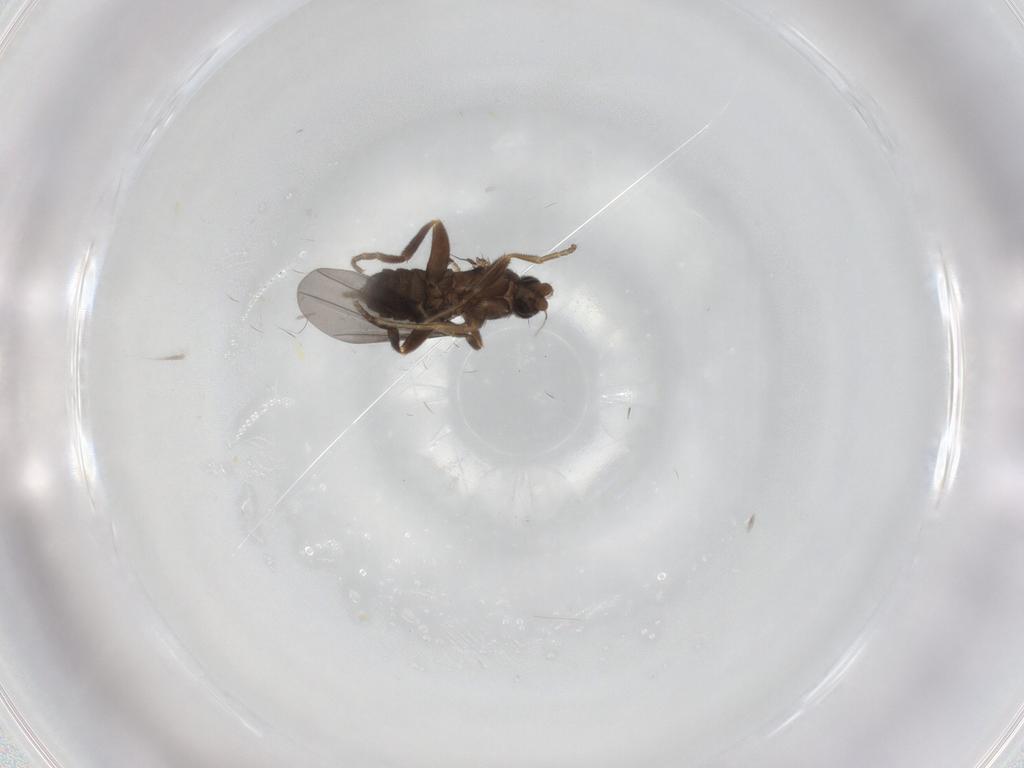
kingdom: Animalia
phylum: Arthropoda
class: Insecta
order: Diptera
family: Phoridae
